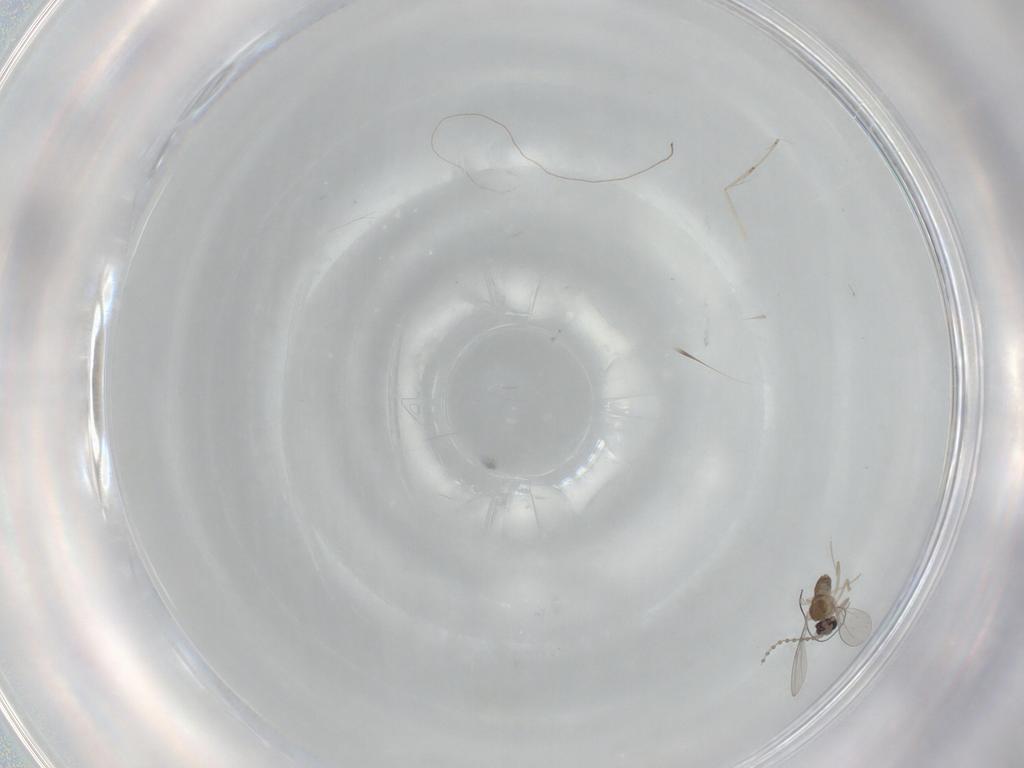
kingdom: Animalia
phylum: Arthropoda
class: Insecta
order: Diptera
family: Cecidomyiidae
